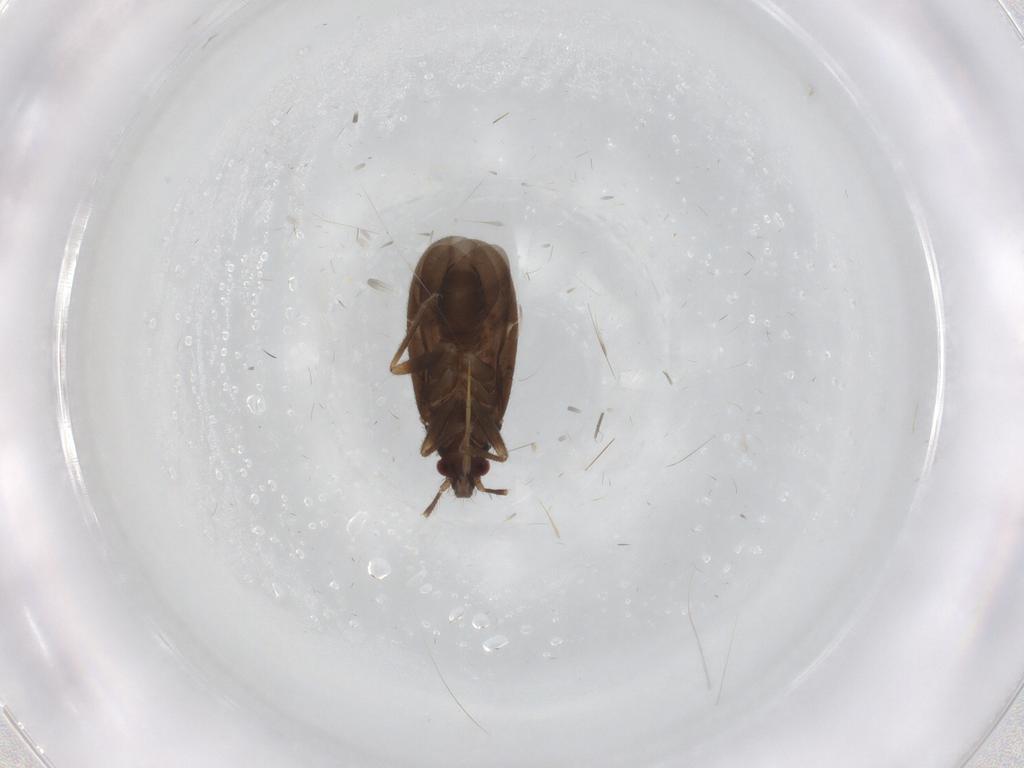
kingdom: Animalia
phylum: Arthropoda
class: Insecta
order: Hemiptera
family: Ceratocombidae
